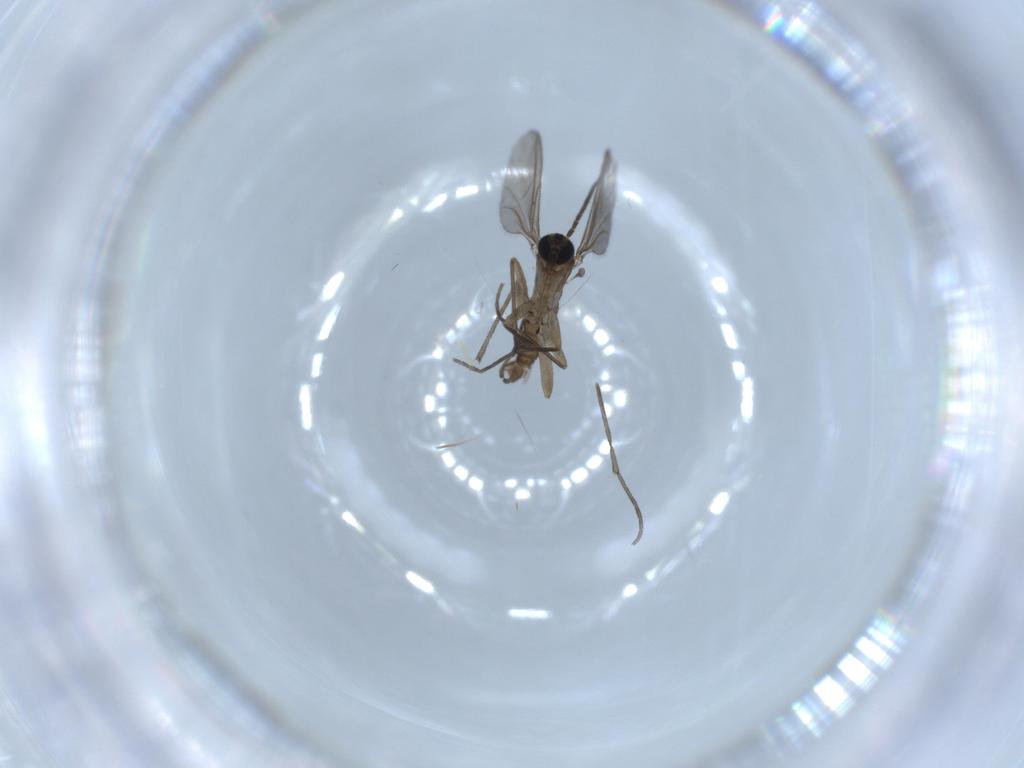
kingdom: Animalia
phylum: Arthropoda
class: Insecta
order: Diptera
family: Sciaridae
